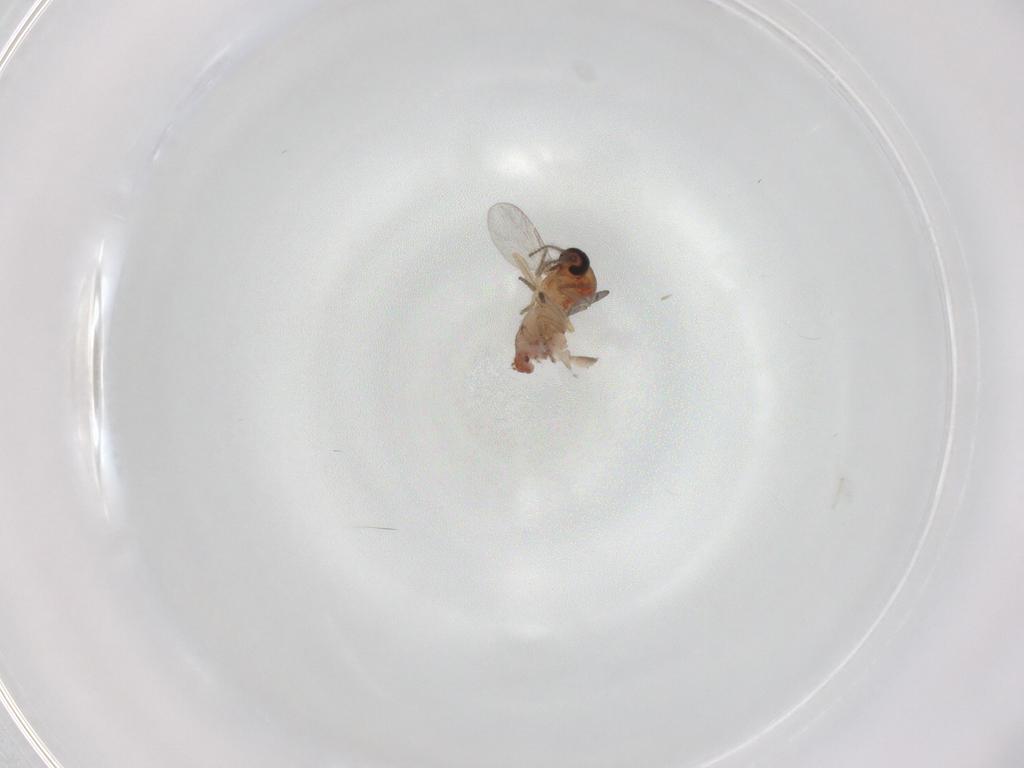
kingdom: Animalia
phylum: Arthropoda
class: Insecta
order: Diptera
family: Ceratopogonidae
